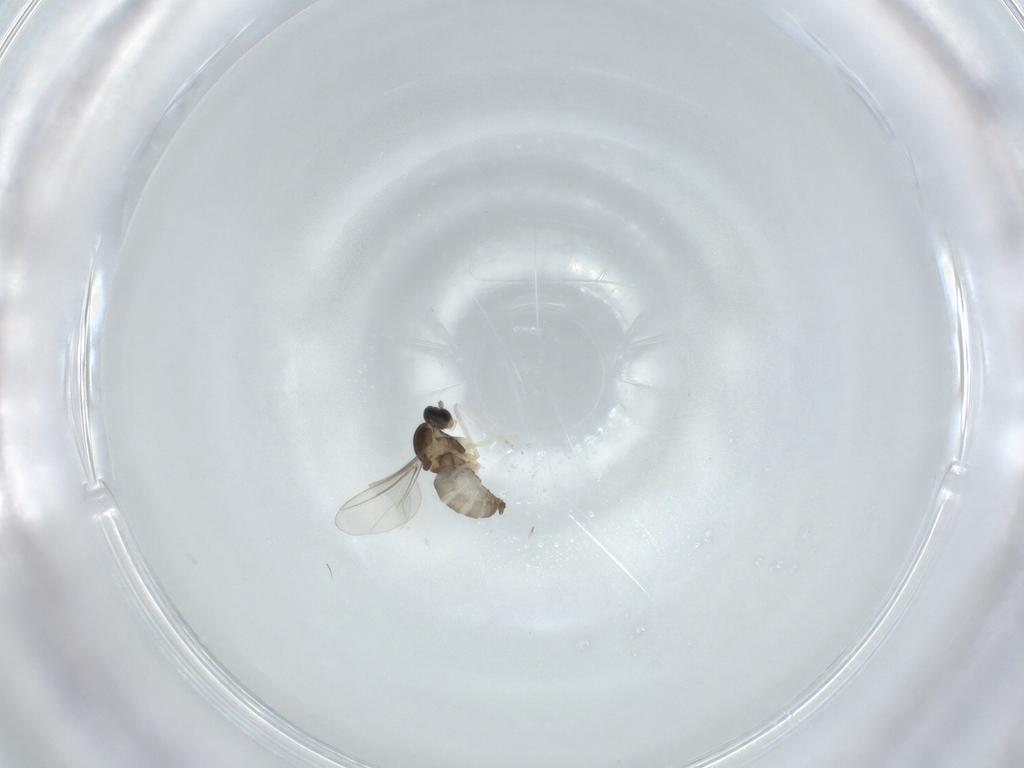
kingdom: Animalia
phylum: Arthropoda
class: Insecta
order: Diptera
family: Cecidomyiidae
